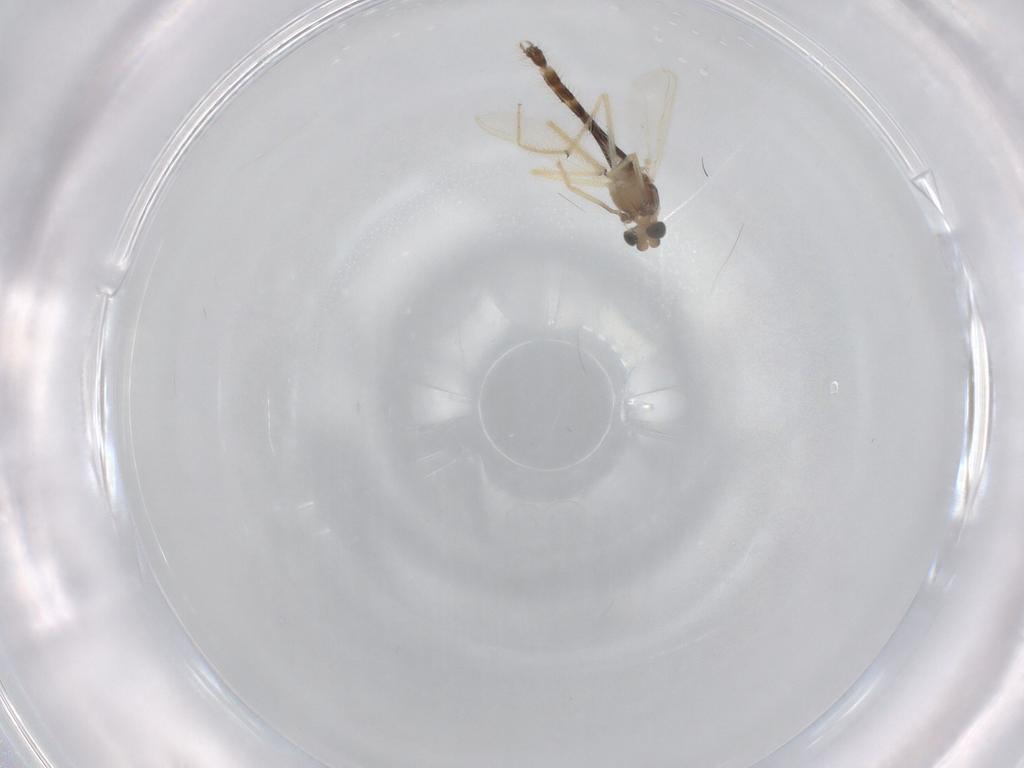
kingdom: Animalia
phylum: Arthropoda
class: Insecta
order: Diptera
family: Chironomidae
